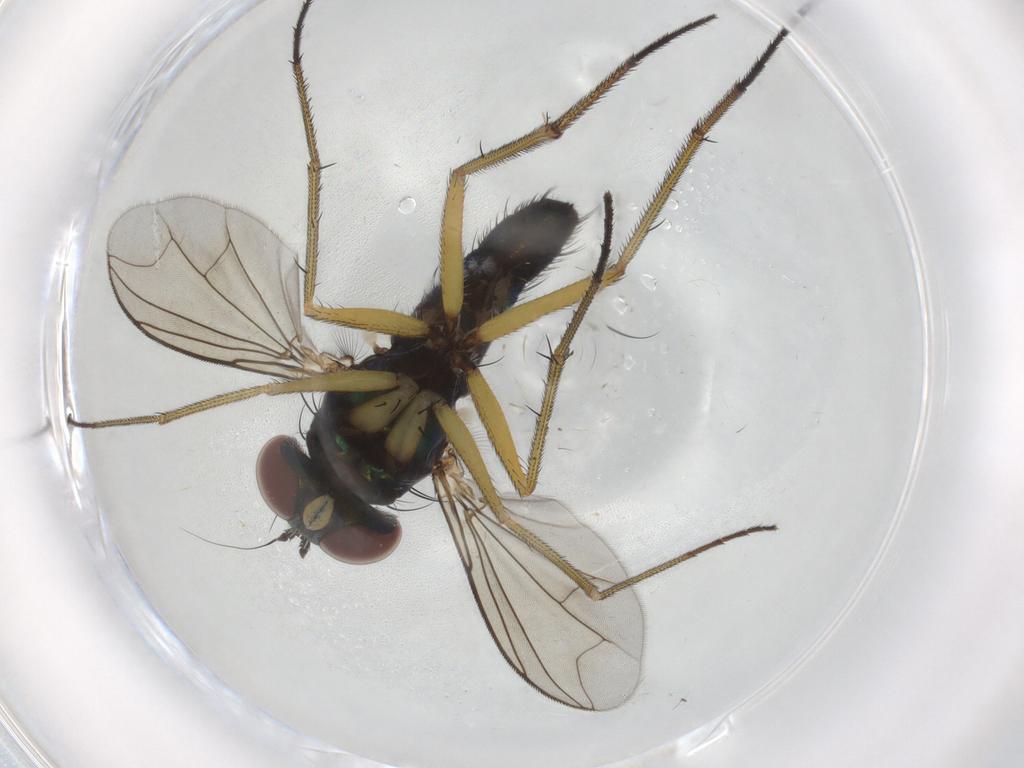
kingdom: Animalia
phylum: Arthropoda
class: Insecta
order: Diptera
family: Dolichopodidae
